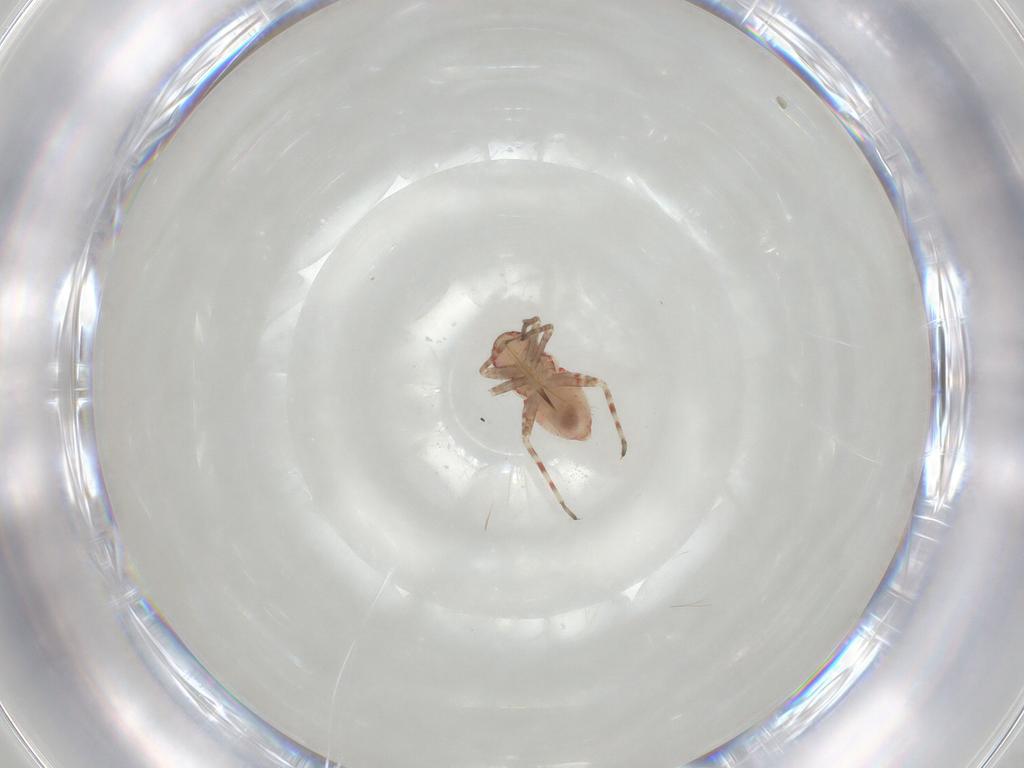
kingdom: Animalia
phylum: Arthropoda
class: Insecta
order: Hemiptera
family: Miridae
